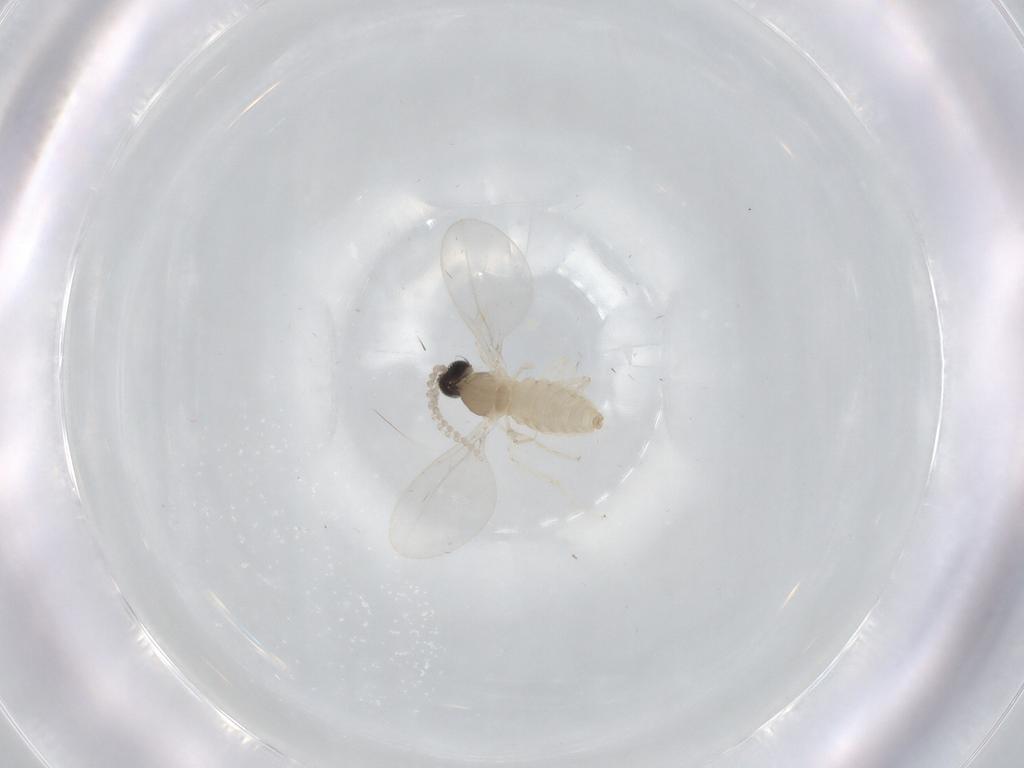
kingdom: Animalia
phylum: Arthropoda
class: Insecta
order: Diptera
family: Cecidomyiidae
